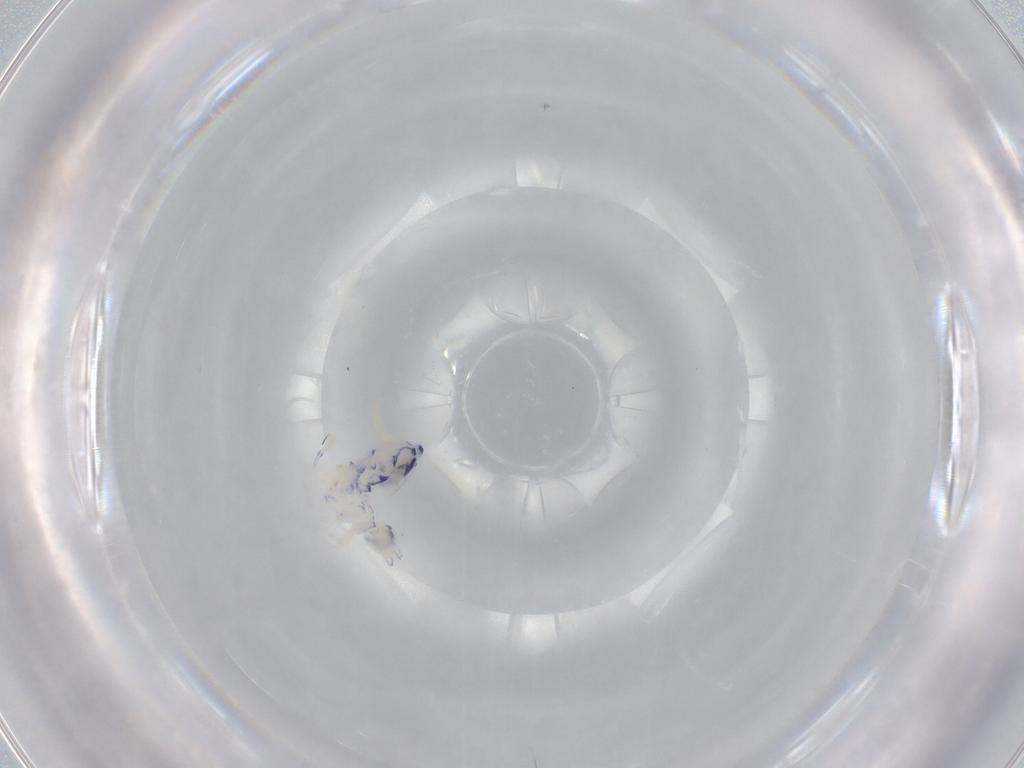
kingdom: Animalia
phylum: Arthropoda
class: Collembola
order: Entomobryomorpha
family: Entomobryidae
